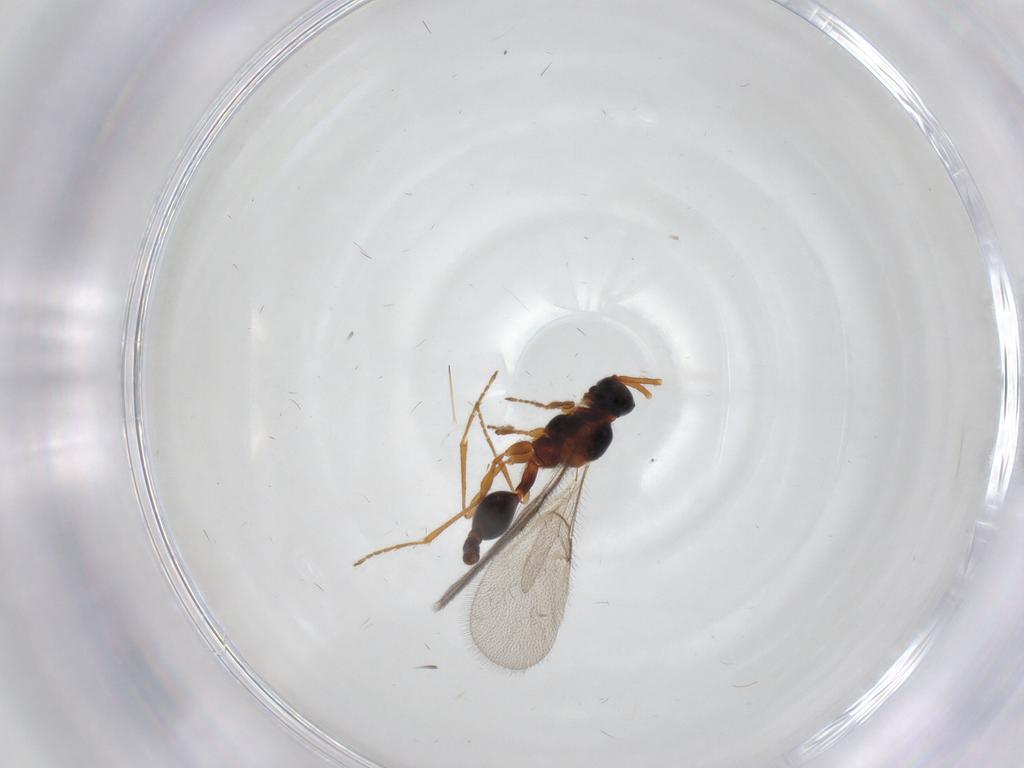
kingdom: Animalia
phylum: Arthropoda
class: Insecta
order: Hymenoptera
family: Diapriidae
